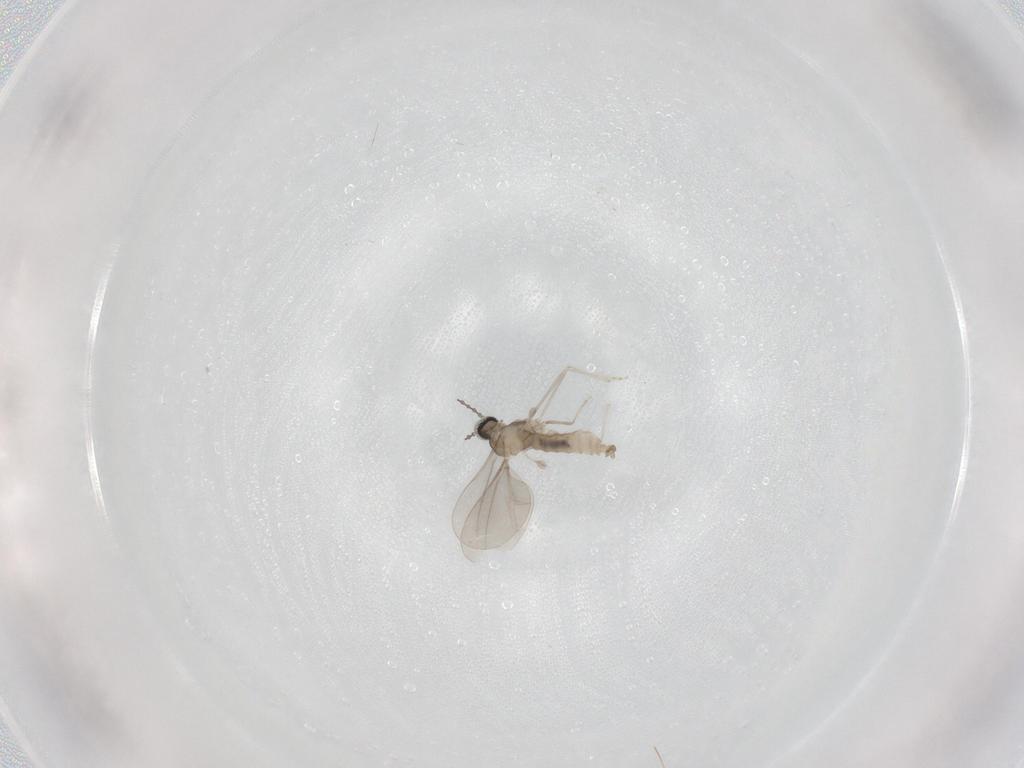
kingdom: Animalia
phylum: Arthropoda
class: Insecta
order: Diptera
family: Cecidomyiidae
